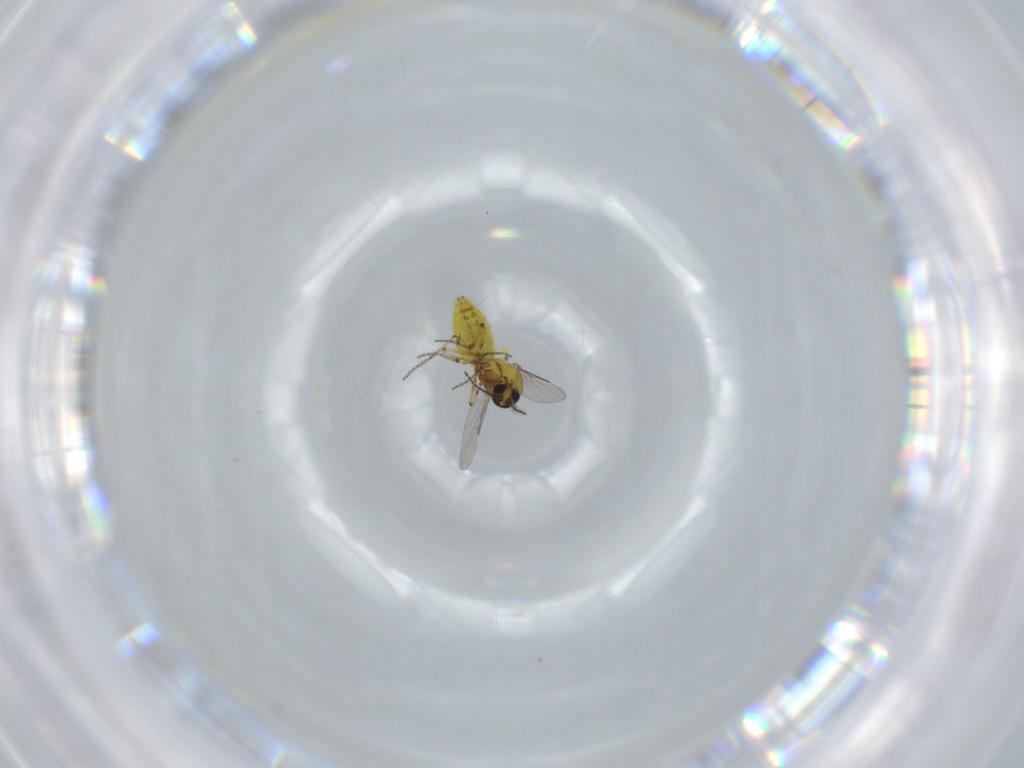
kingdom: Animalia
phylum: Arthropoda
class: Insecta
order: Diptera
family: Ceratopogonidae
